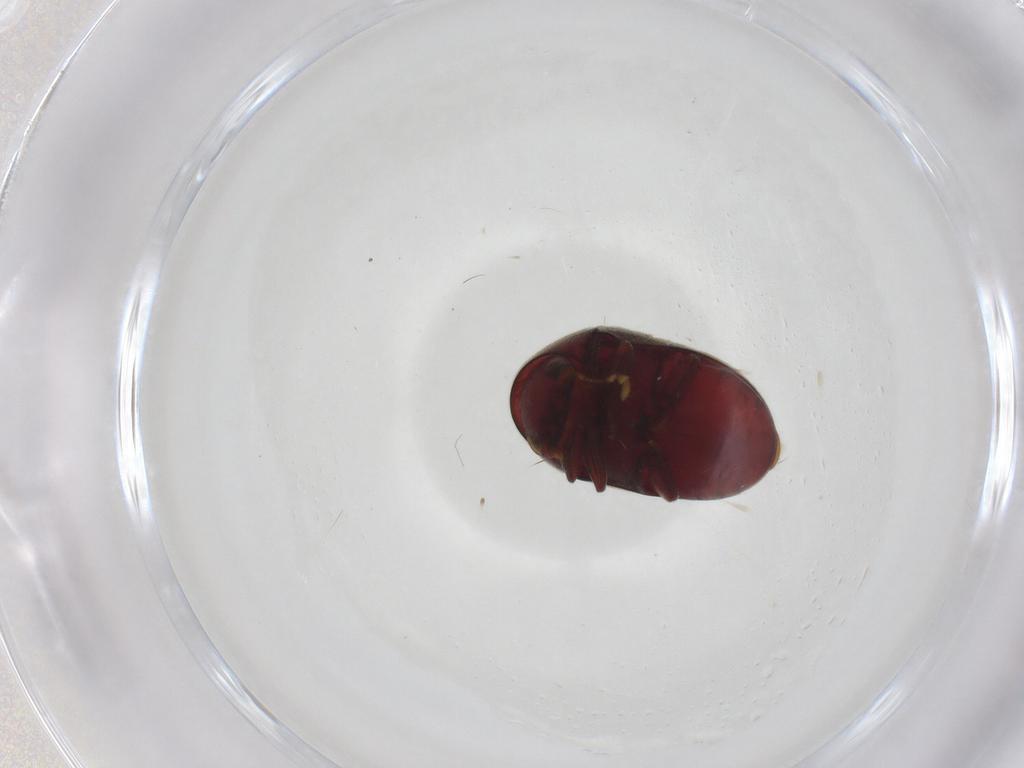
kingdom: Animalia
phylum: Arthropoda
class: Insecta
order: Coleoptera
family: Ptinidae
